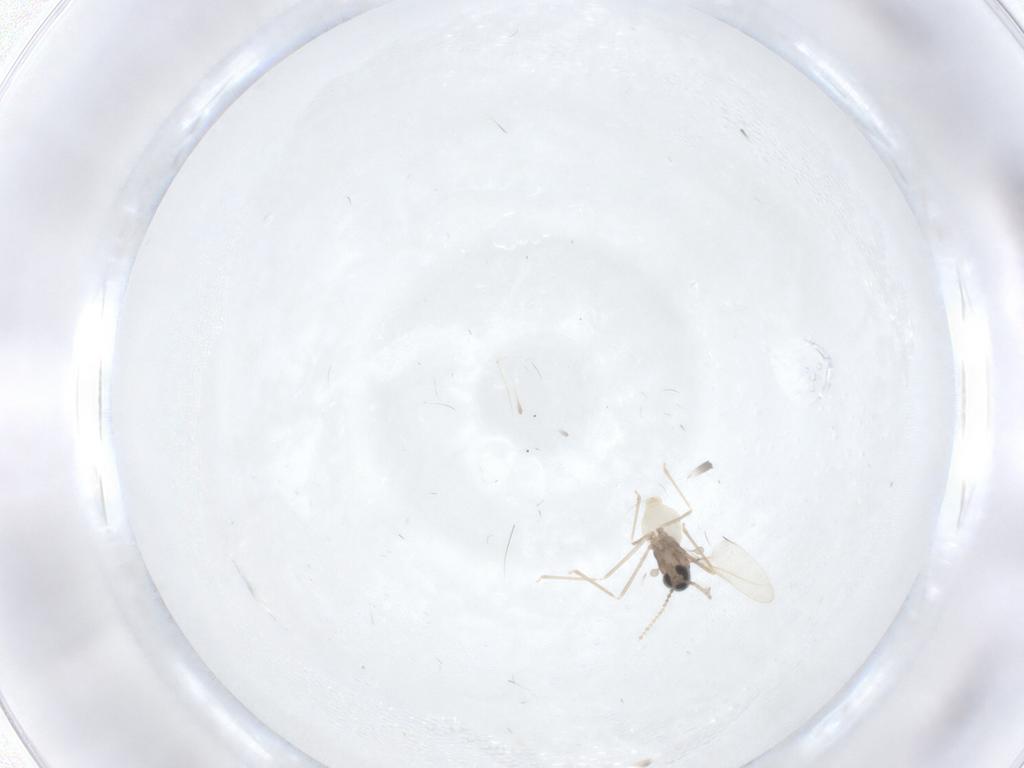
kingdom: Animalia
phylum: Arthropoda
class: Insecta
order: Diptera
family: Cecidomyiidae
